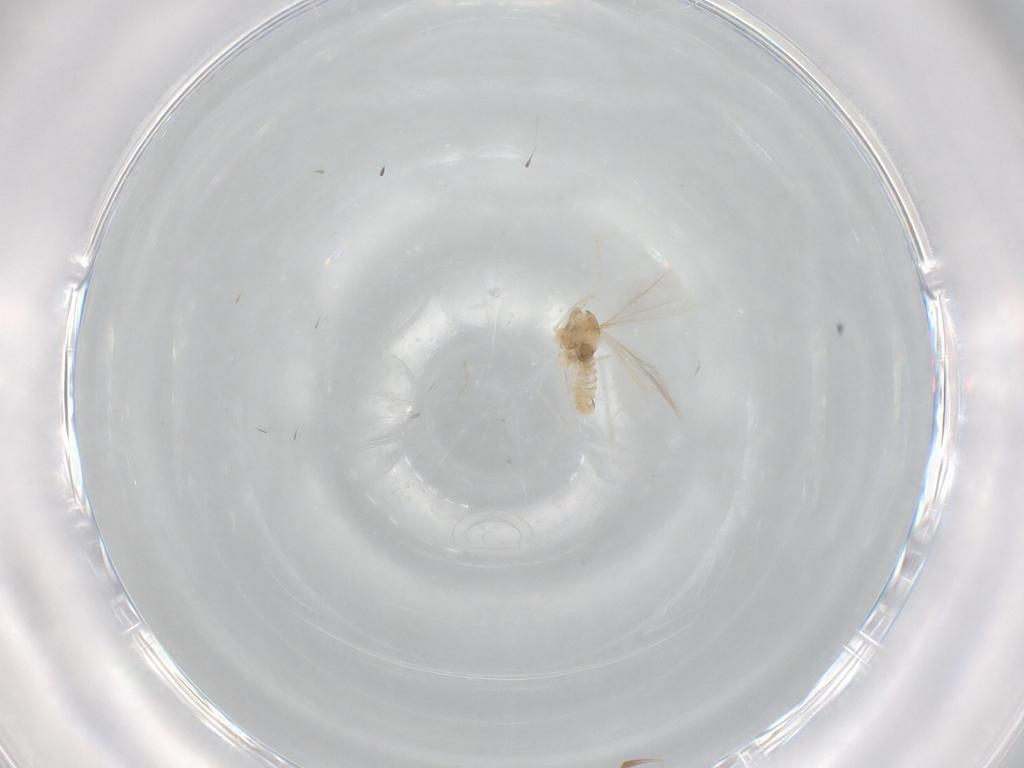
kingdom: Animalia
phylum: Arthropoda
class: Insecta
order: Diptera
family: Cecidomyiidae
